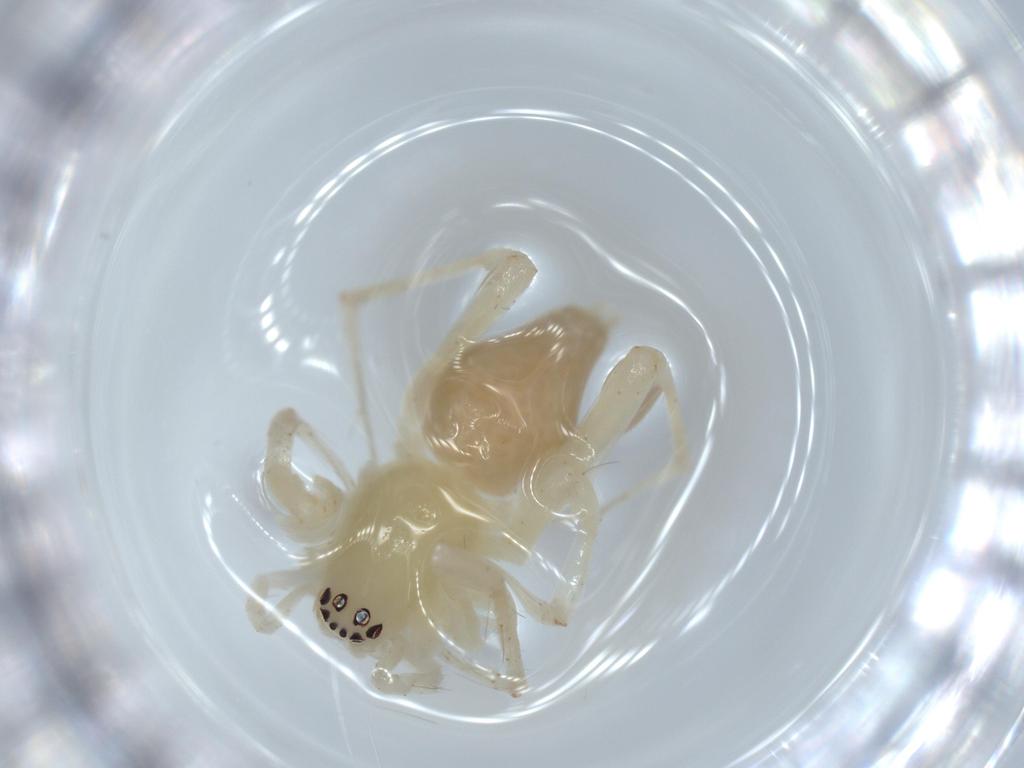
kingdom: Animalia
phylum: Arthropoda
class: Arachnida
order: Araneae
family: Anyphaenidae
